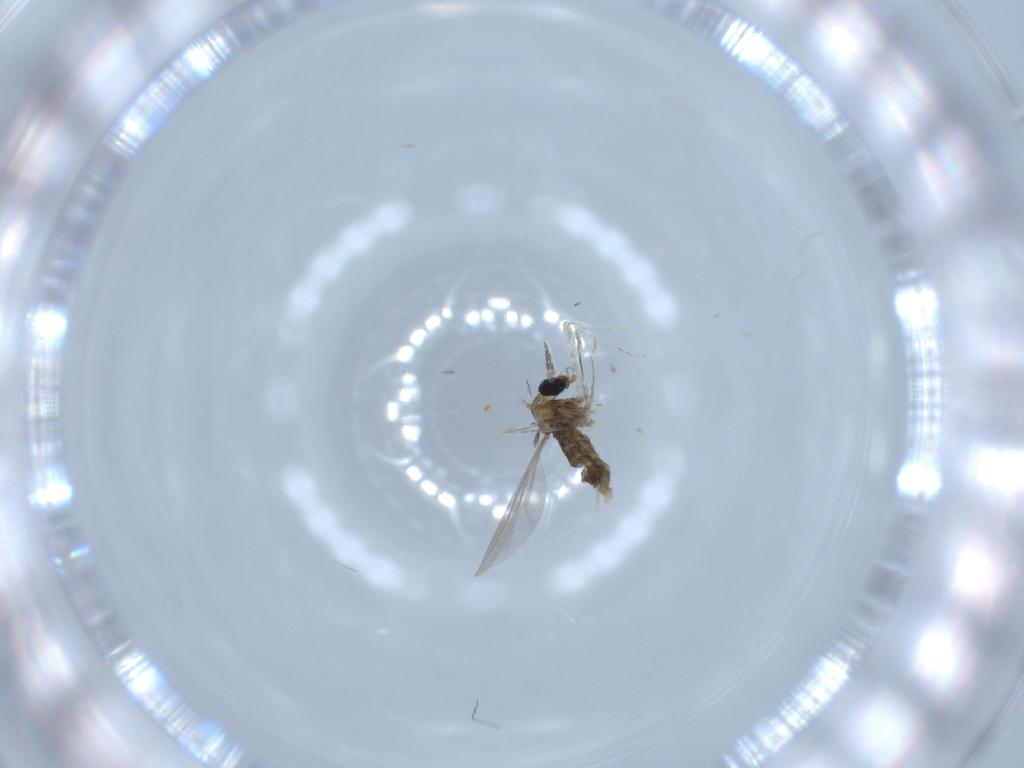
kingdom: Animalia
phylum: Arthropoda
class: Insecta
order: Diptera
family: Cecidomyiidae
